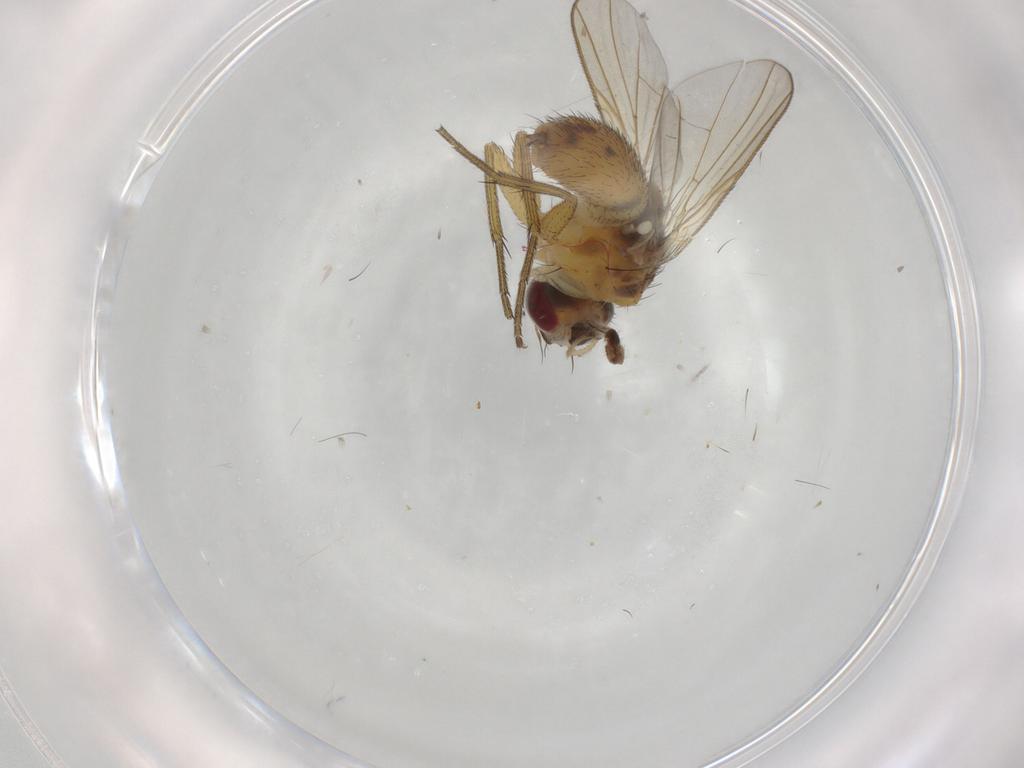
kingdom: Animalia
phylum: Arthropoda
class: Insecta
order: Diptera
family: Muscidae
